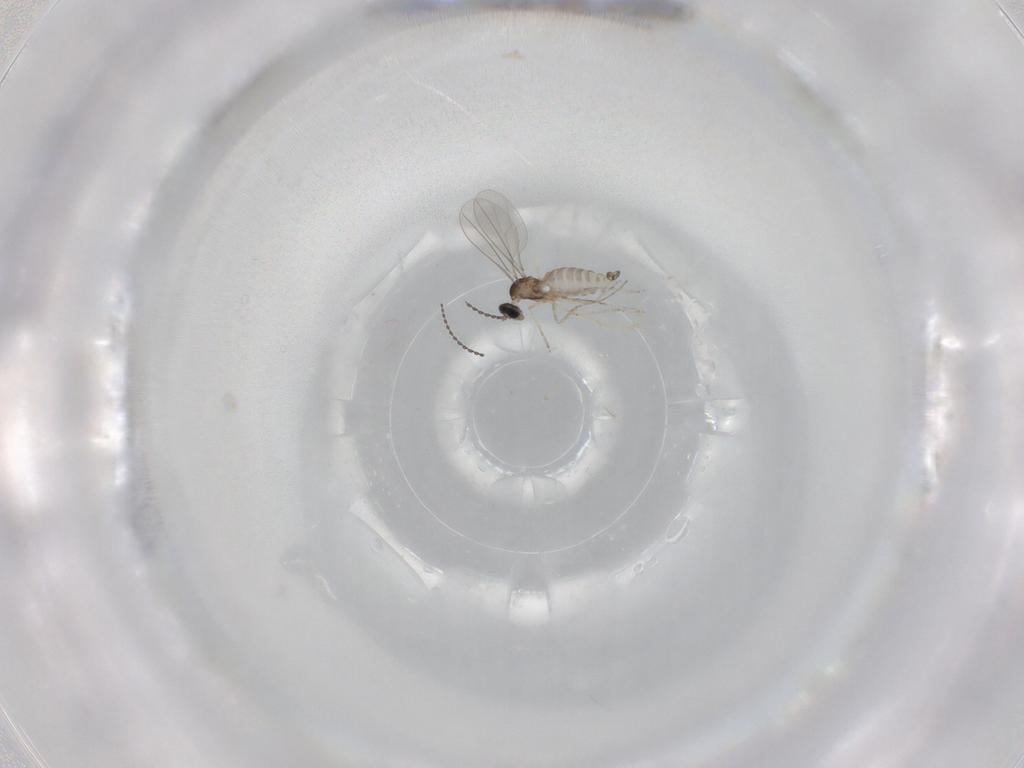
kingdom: Animalia
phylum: Arthropoda
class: Insecta
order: Diptera
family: Cecidomyiidae
